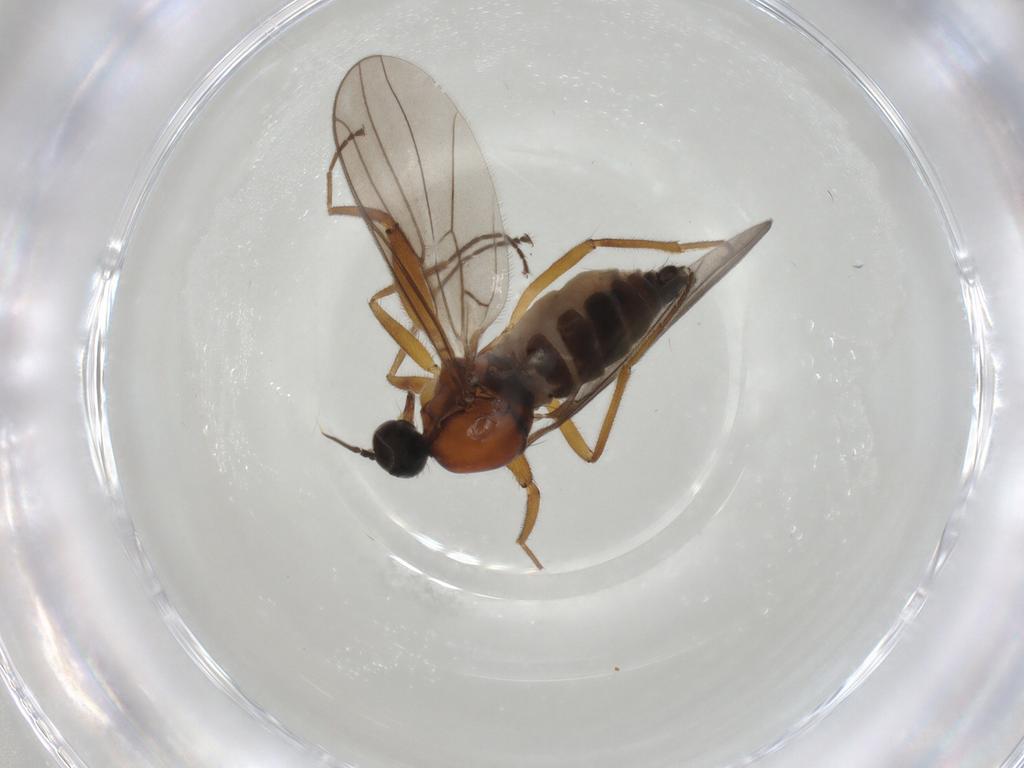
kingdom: Animalia
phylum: Arthropoda
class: Insecta
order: Diptera
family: Hybotidae
